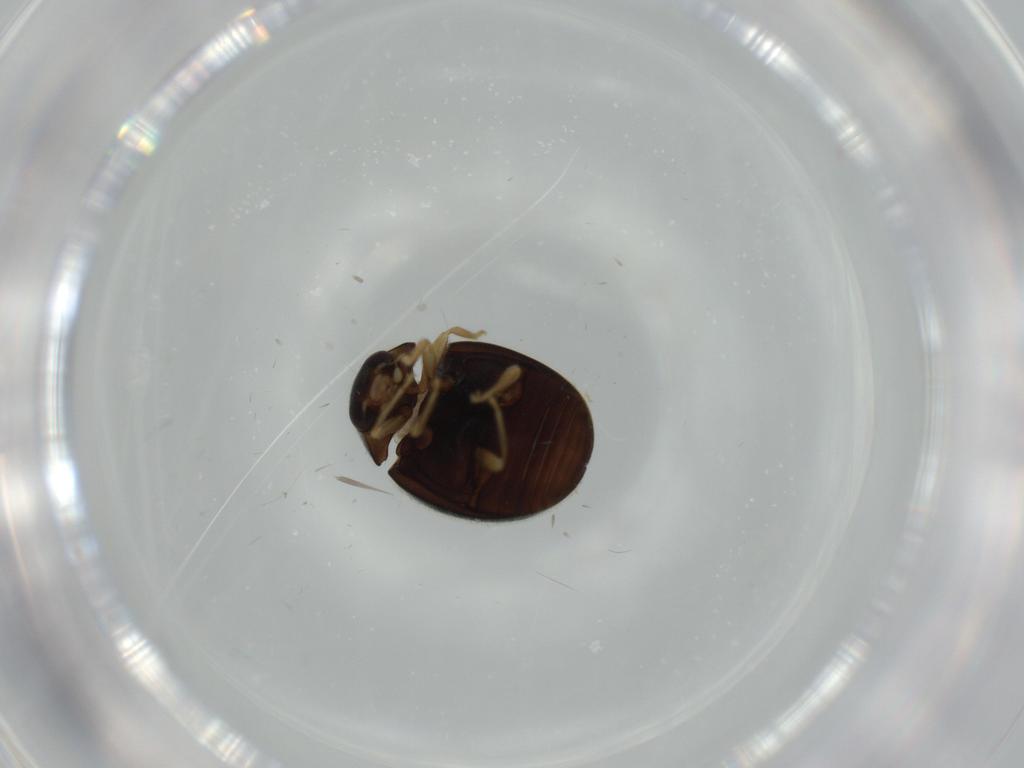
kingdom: Animalia
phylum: Arthropoda
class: Insecta
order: Coleoptera
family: Coccinellidae
